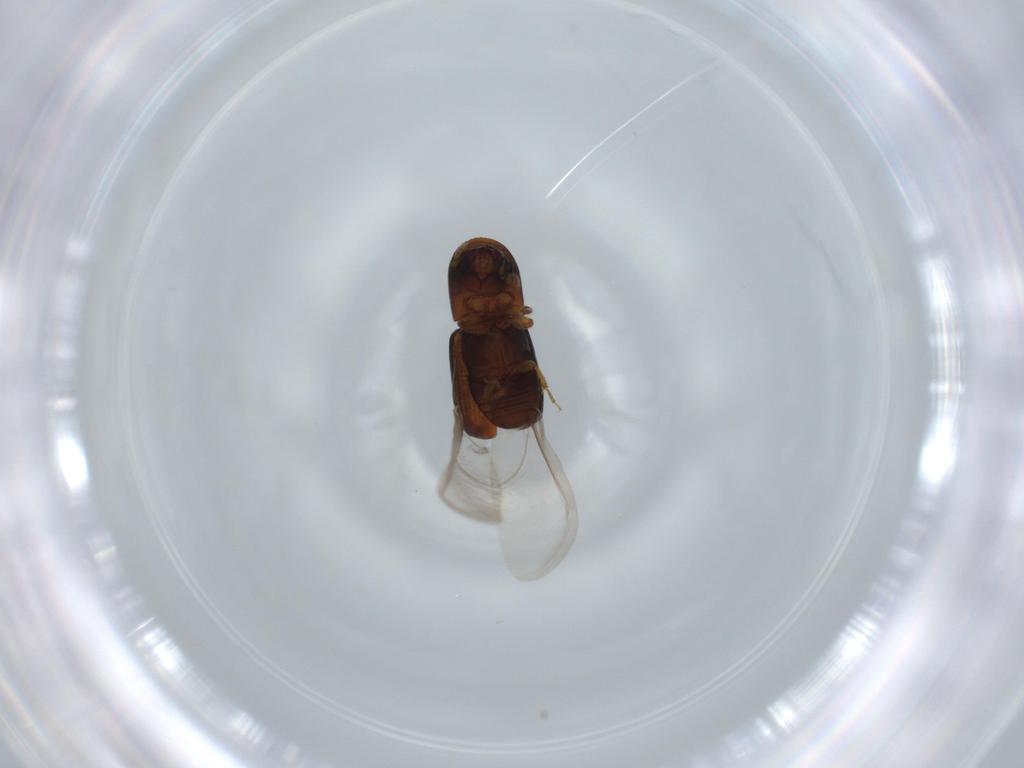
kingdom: Animalia
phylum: Arthropoda
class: Insecta
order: Coleoptera
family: Curculionidae
